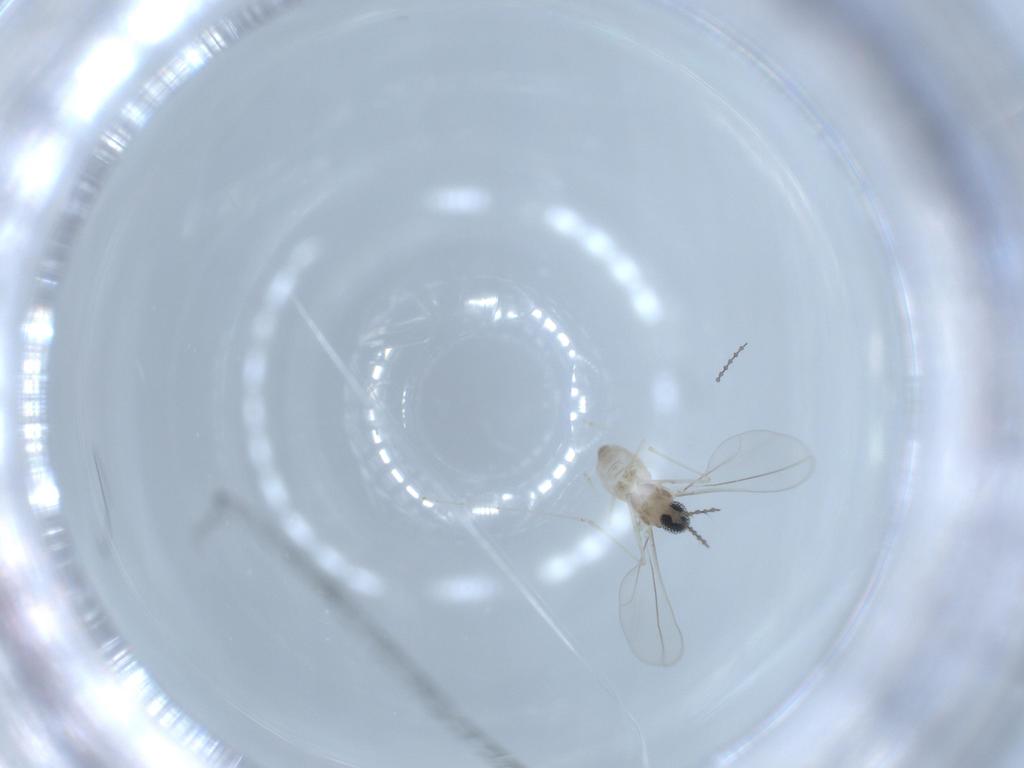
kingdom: Animalia
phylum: Arthropoda
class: Insecta
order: Diptera
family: Cecidomyiidae
